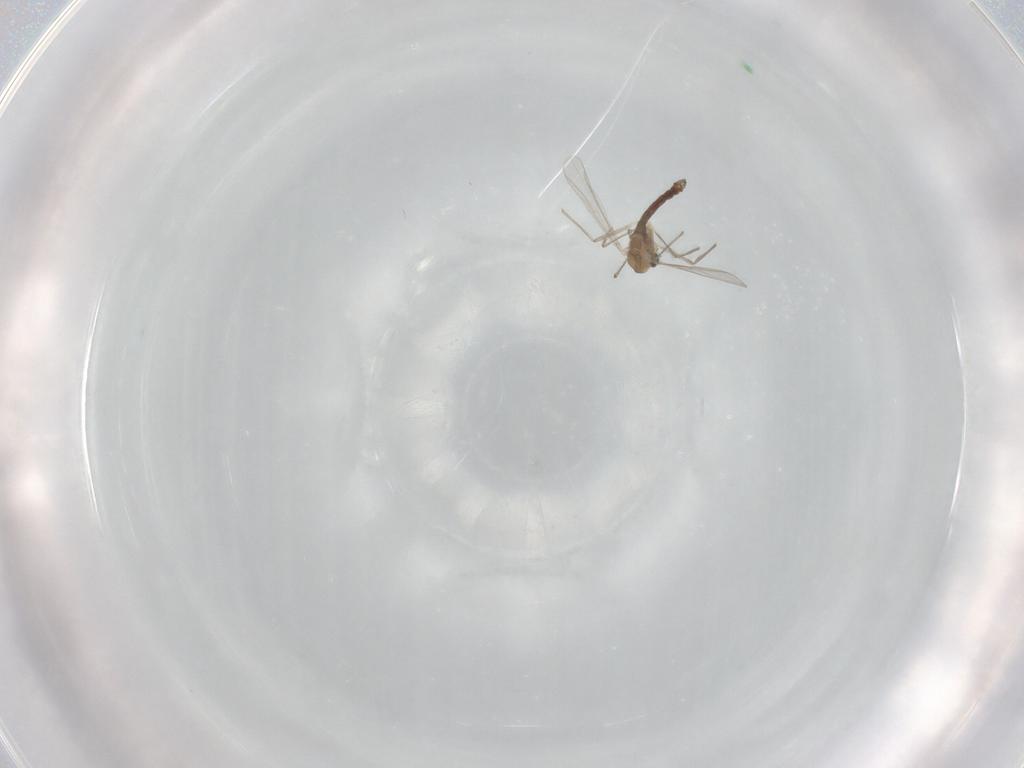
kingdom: Animalia
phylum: Arthropoda
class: Insecta
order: Diptera
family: Chironomidae
